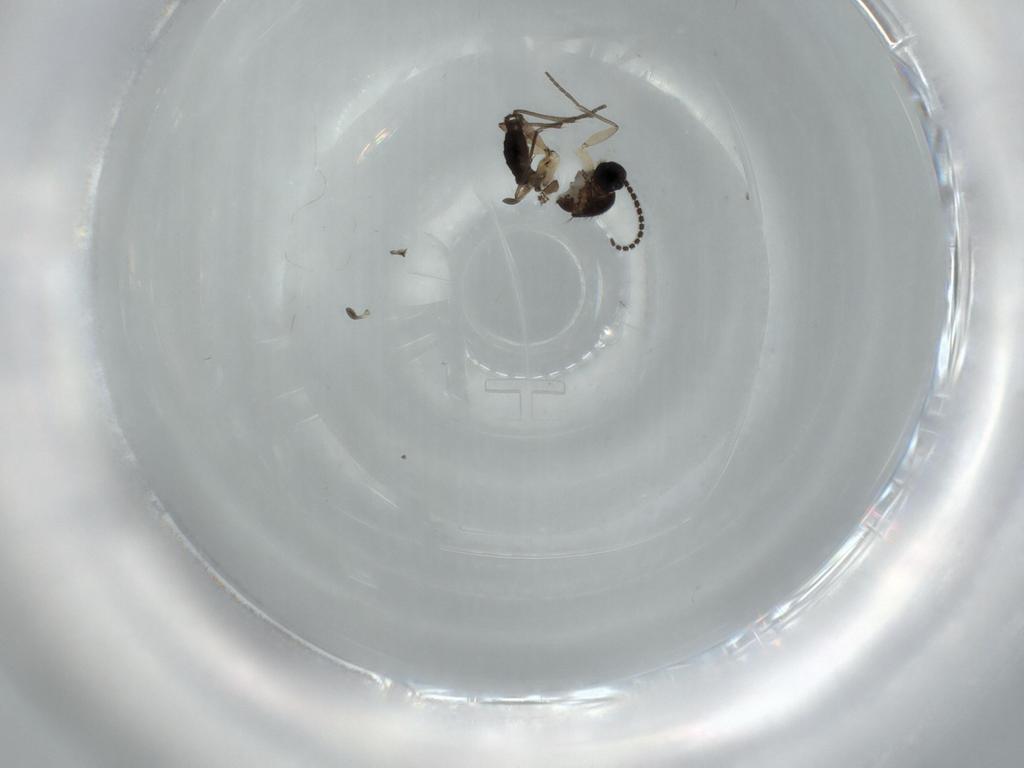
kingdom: Animalia
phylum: Arthropoda
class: Insecta
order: Diptera
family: Sciaridae
